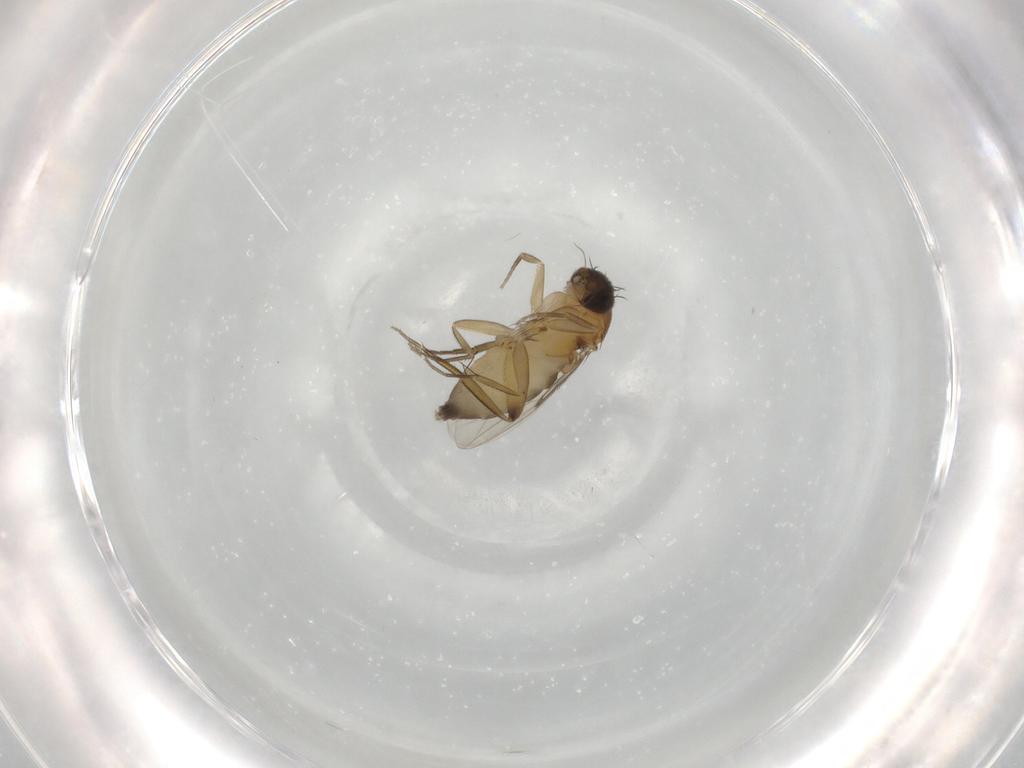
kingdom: Animalia
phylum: Arthropoda
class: Insecta
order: Diptera
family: Phoridae
